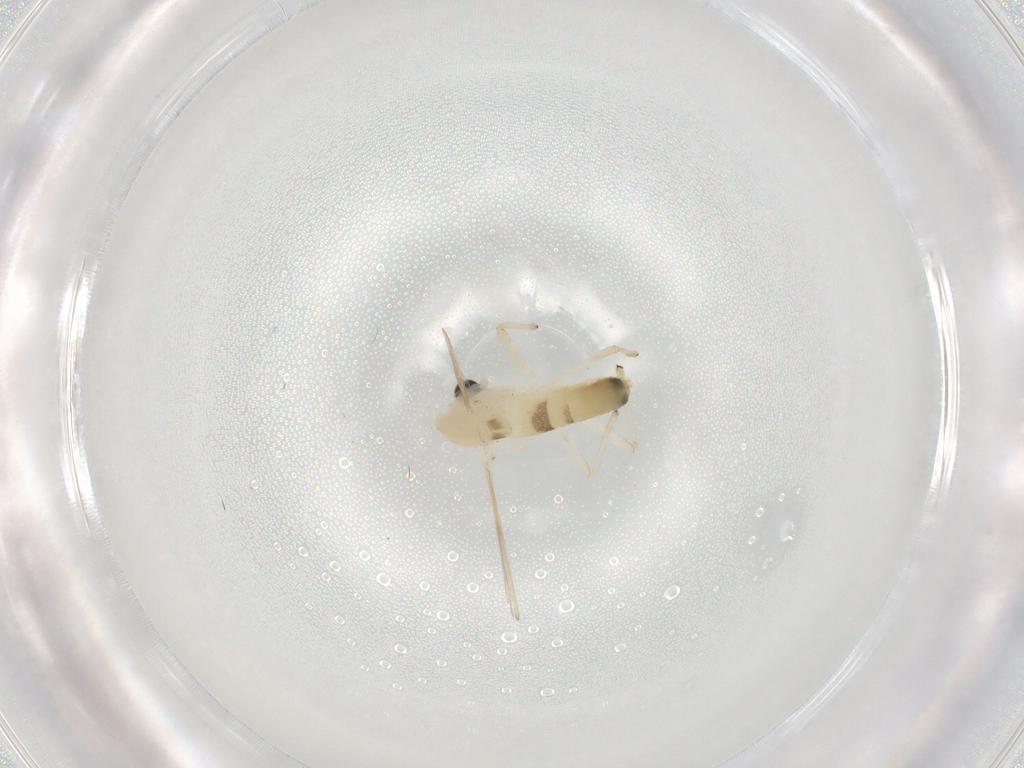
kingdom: Animalia
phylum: Arthropoda
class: Insecta
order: Diptera
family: Chironomidae
